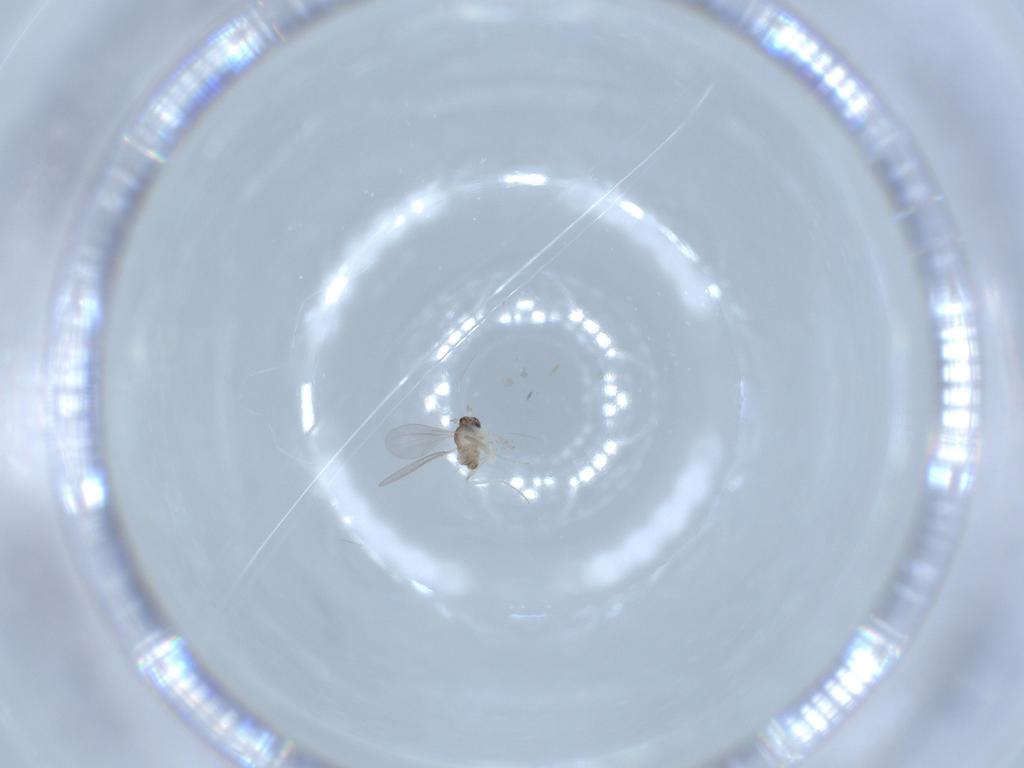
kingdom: Animalia
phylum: Arthropoda
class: Insecta
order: Diptera
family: Cecidomyiidae
